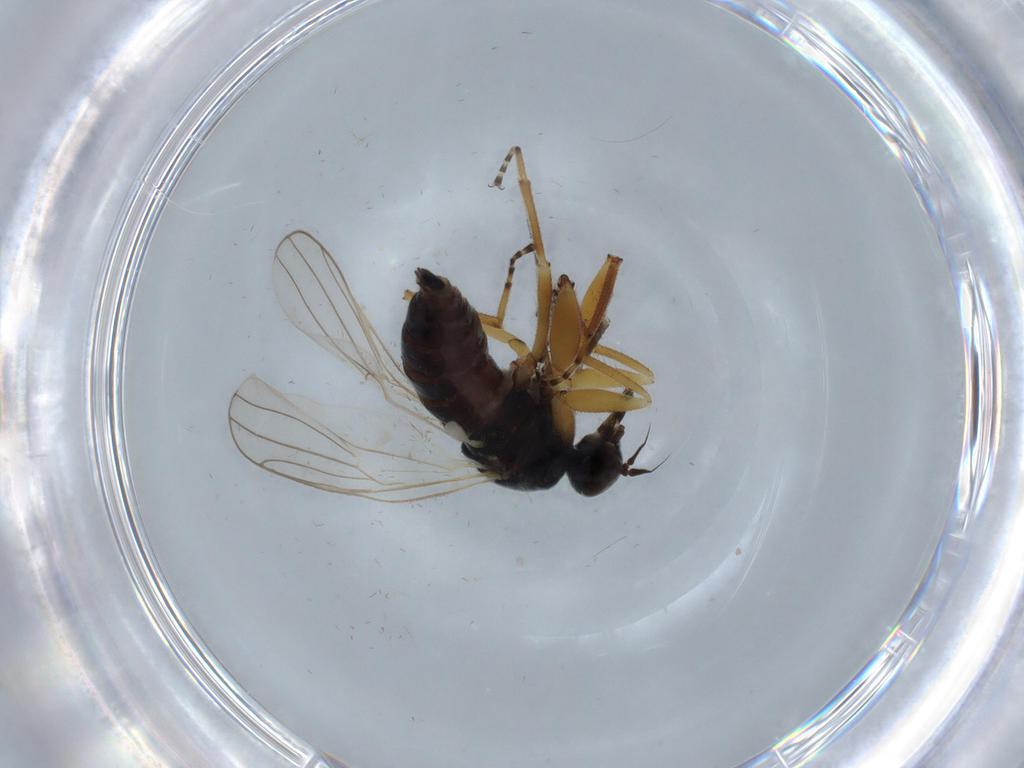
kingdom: Animalia
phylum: Arthropoda
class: Insecta
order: Diptera
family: Hybotidae
